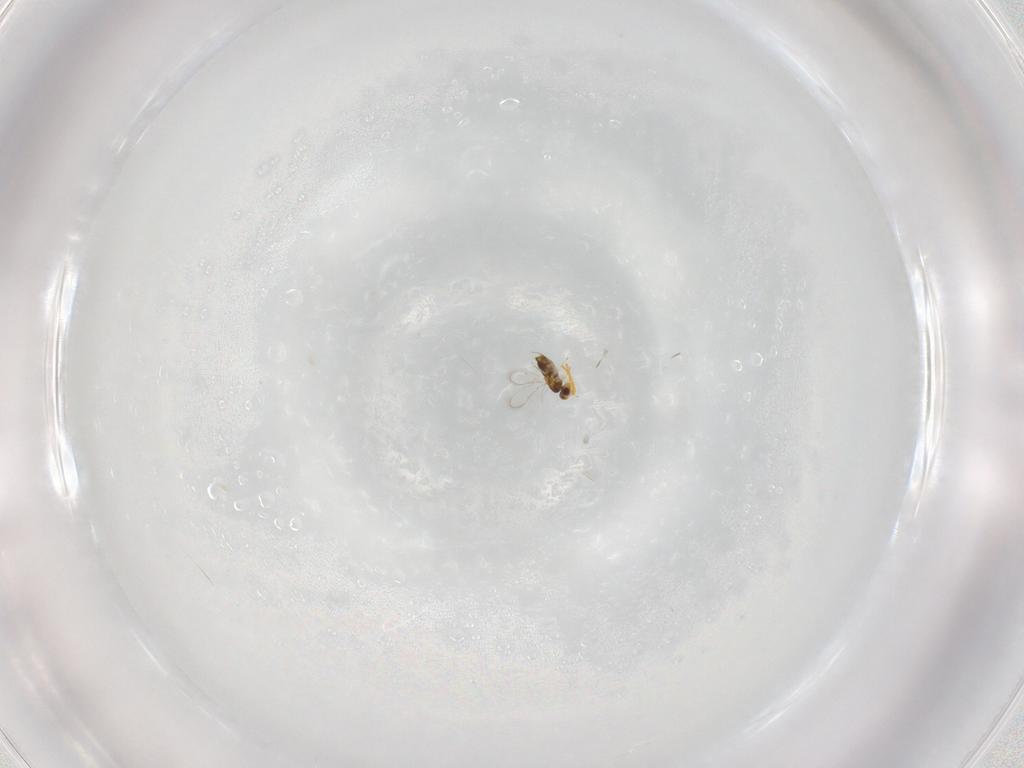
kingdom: Animalia
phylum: Arthropoda
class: Insecta
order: Hymenoptera
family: Aphelinidae
